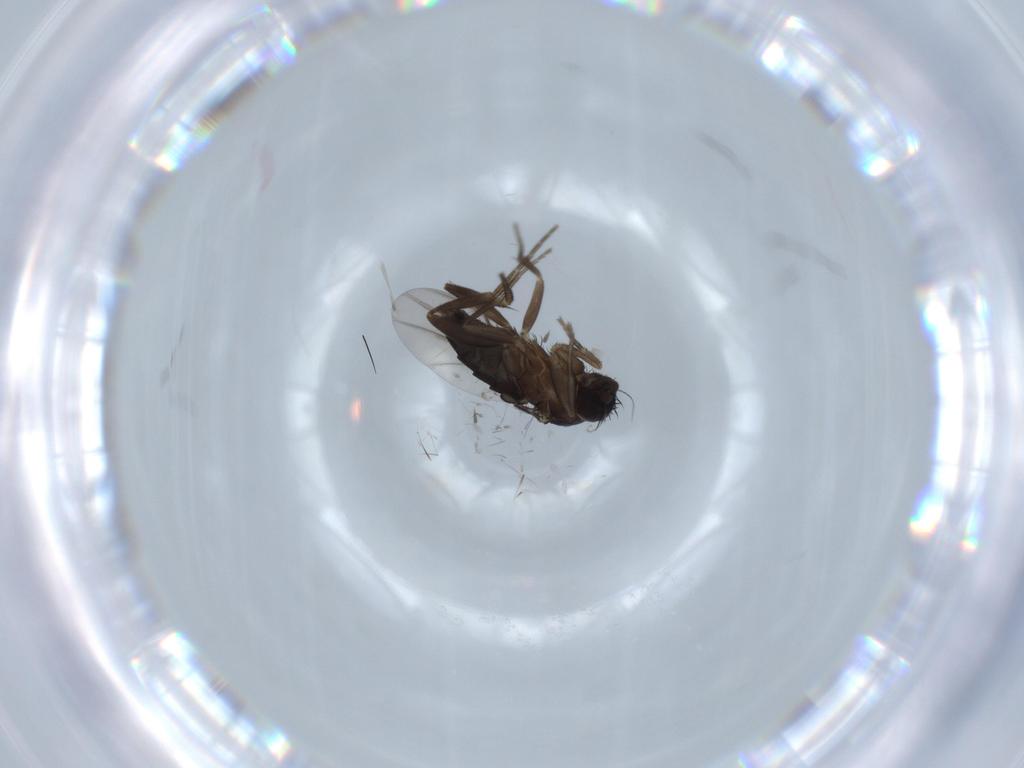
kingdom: Animalia
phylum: Arthropoda
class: Insecta
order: Diptera
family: Phoridae
